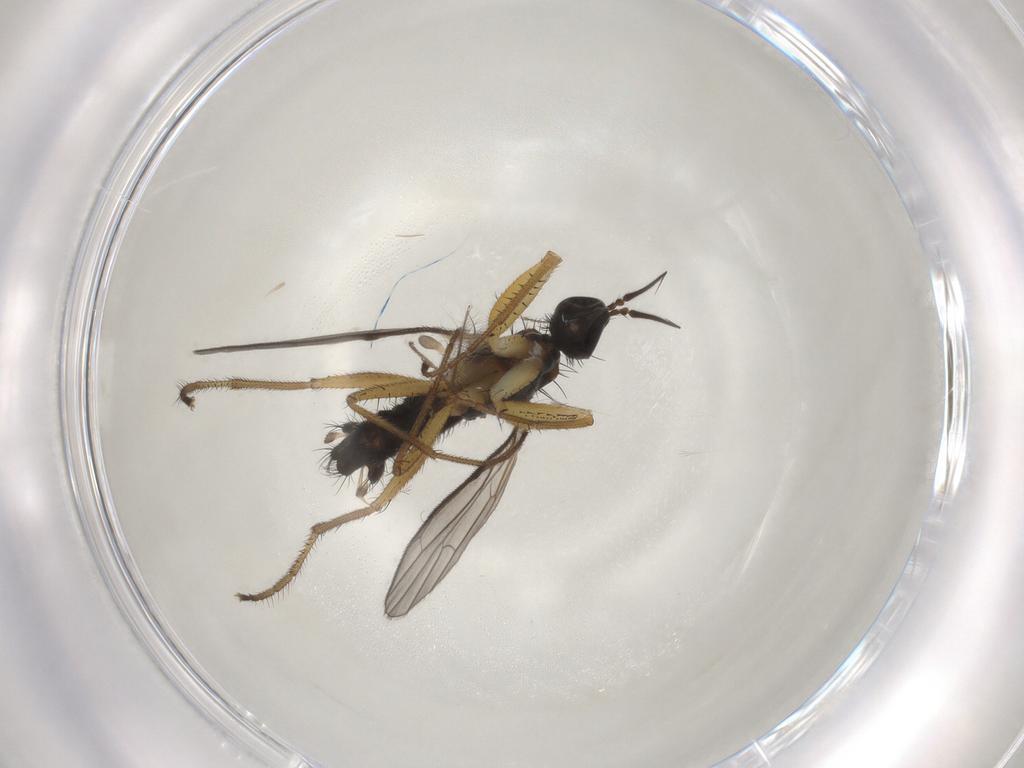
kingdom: Animalia
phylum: Arthropoda
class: Insecta
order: Diptera
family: Chironomidae
